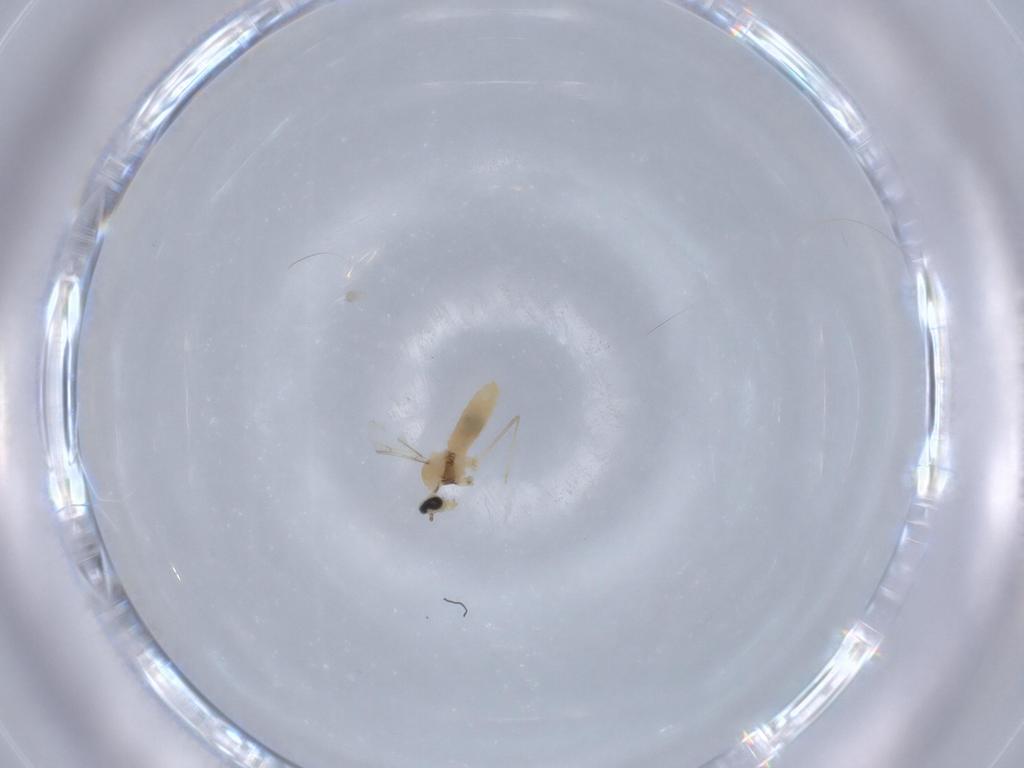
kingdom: Animalia
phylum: Arthropoda
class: Insecta
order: Diptera
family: Cecidomyiidae
